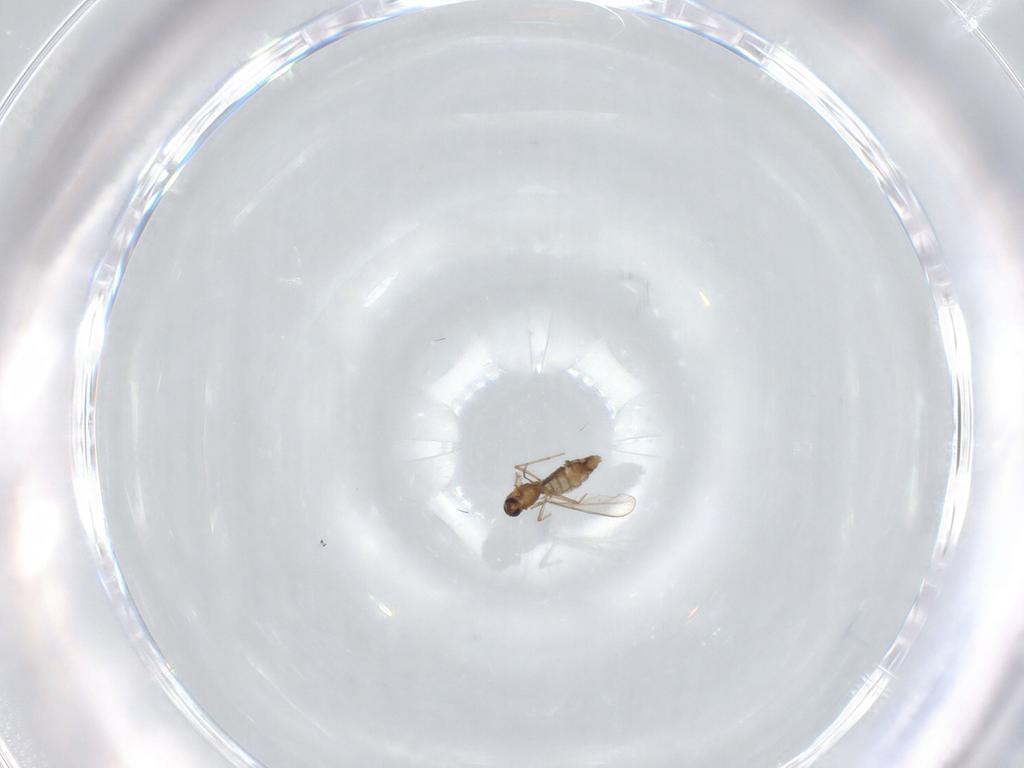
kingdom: Animalia
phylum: Arthropoda
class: Insecta
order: Diptera
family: Chironomidae
